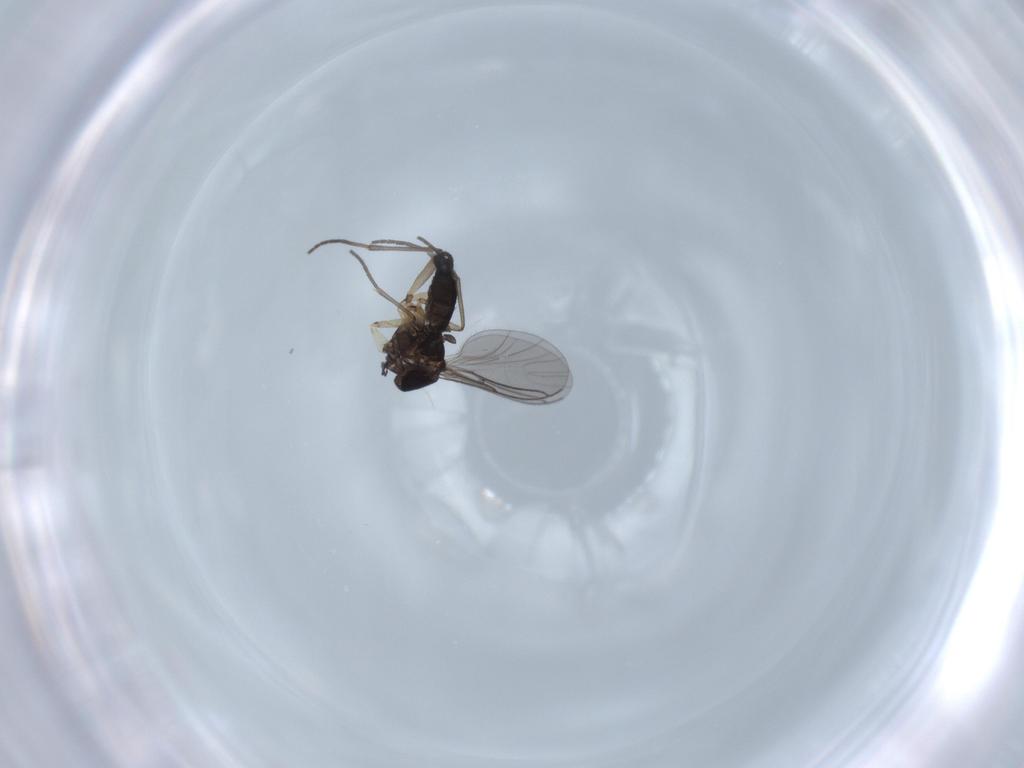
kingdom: Animalia
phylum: Arthropoda
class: Insecta
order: Diptera
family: Sciaridae
